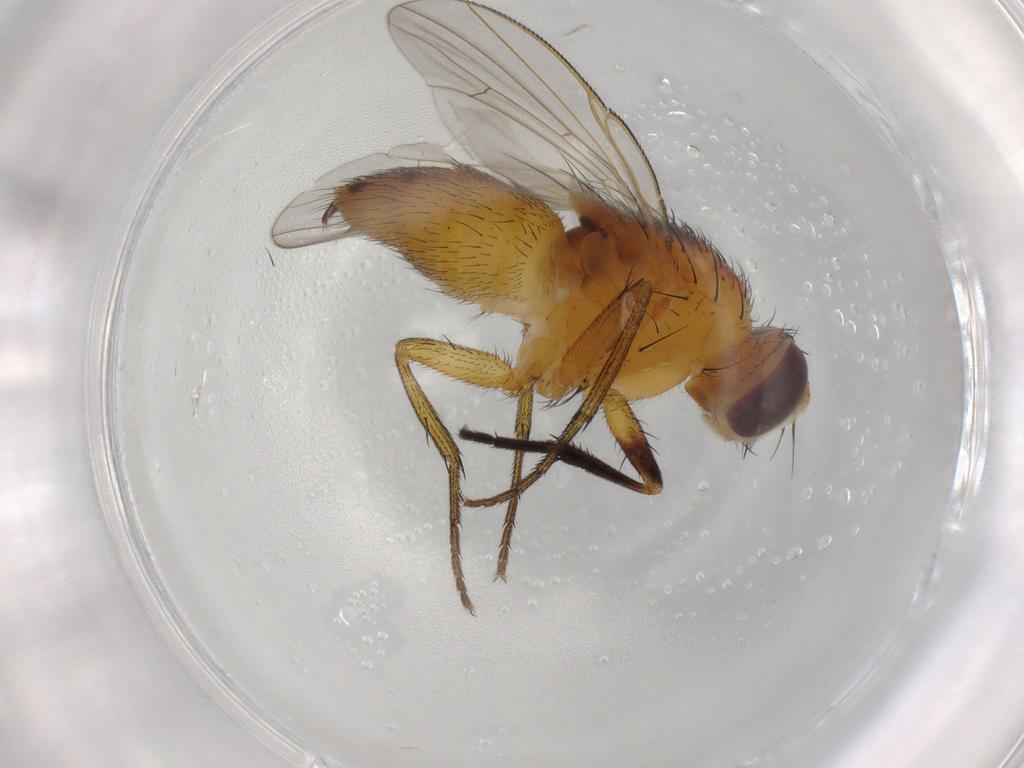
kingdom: Animalia
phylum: Arthropoda
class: Insecta
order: Diptera
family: Muscidae
